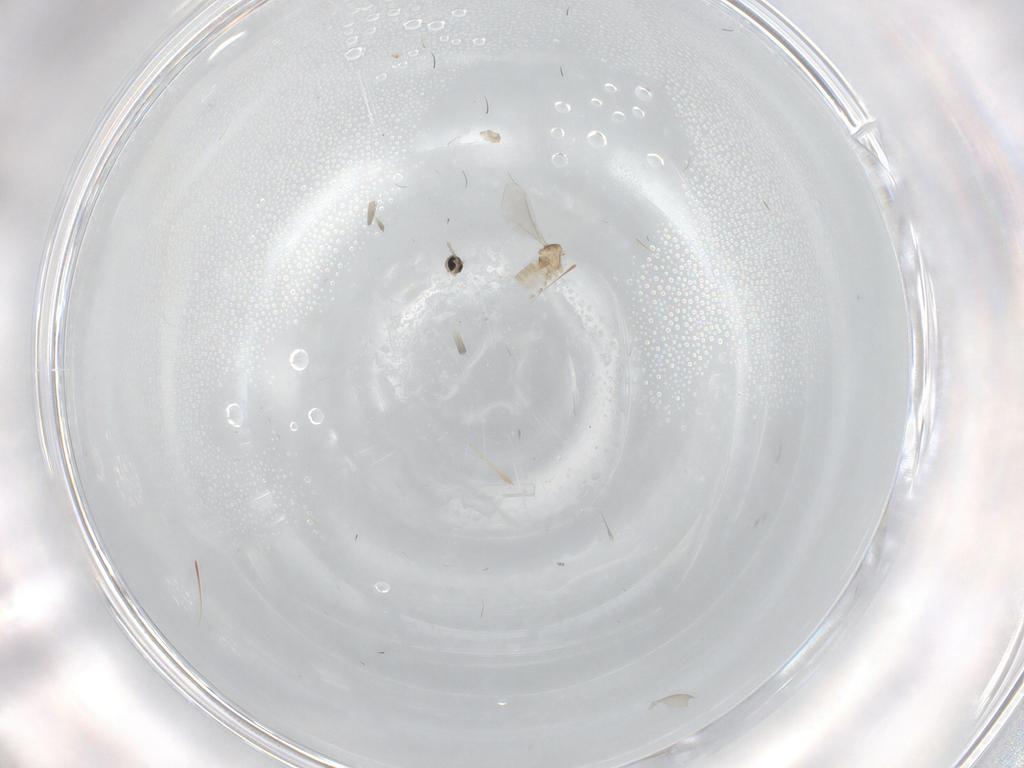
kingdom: Animalia
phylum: Arthropoda
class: Insecta
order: Diptera
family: Cecidomyiidae
